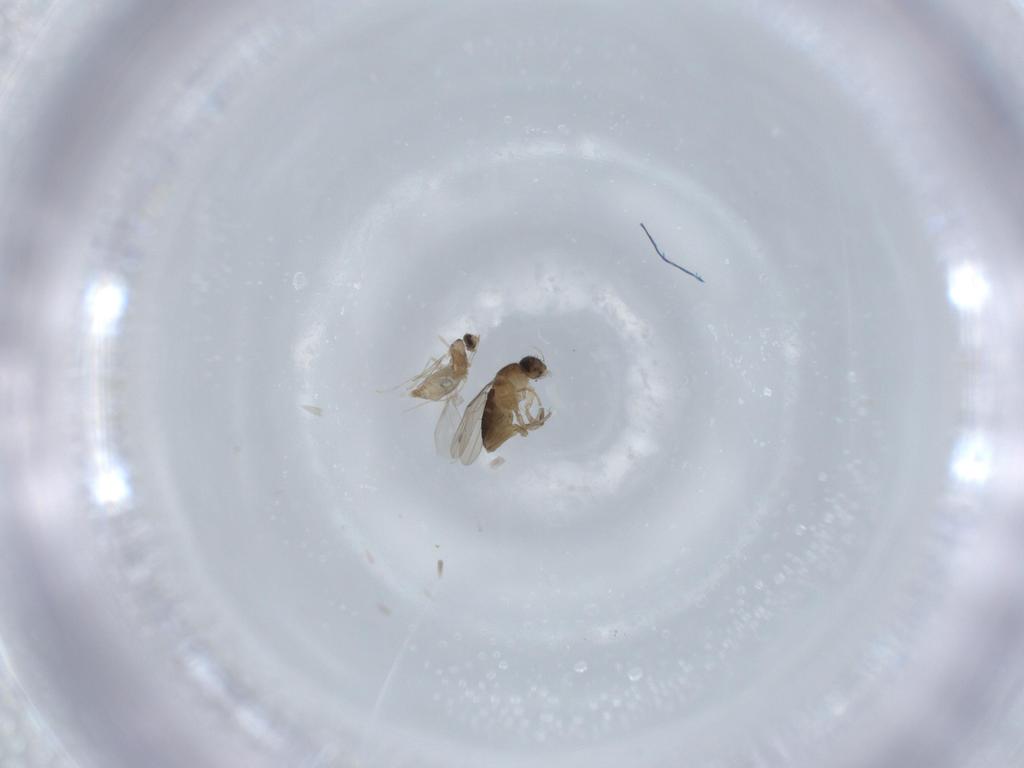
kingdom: Animalia
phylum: Arthropoda
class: Insecta
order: Diptera
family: Phoridae
